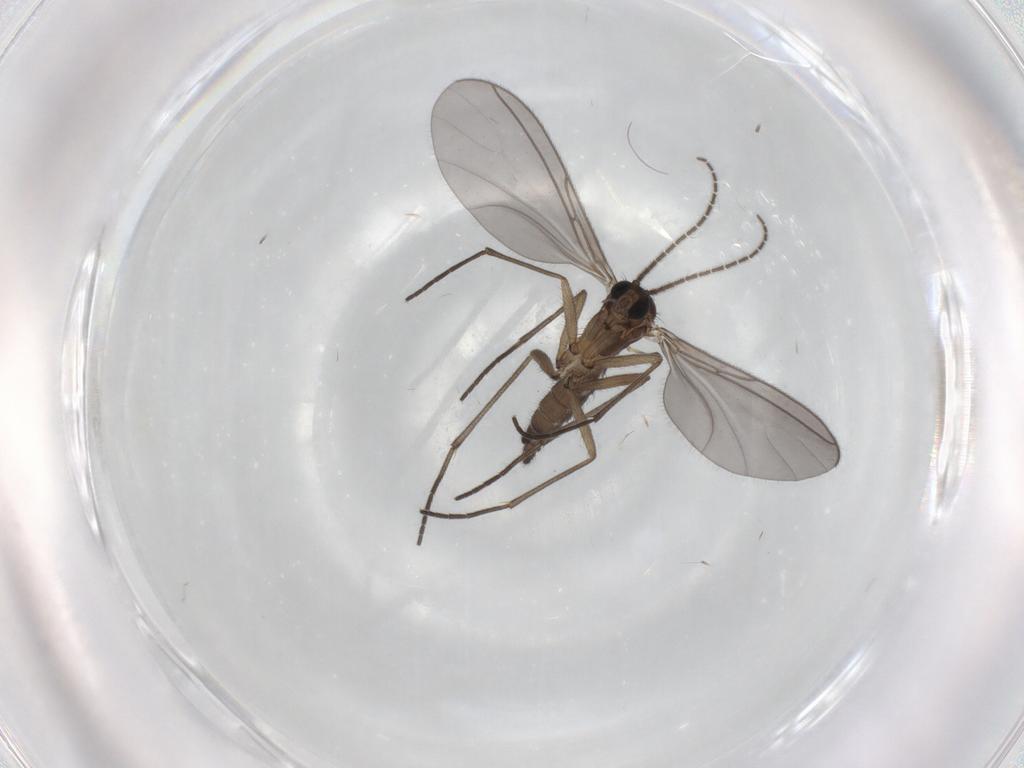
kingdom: Animalia
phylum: Arthropoda
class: Insecta
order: Diptera
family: Sciaridae
